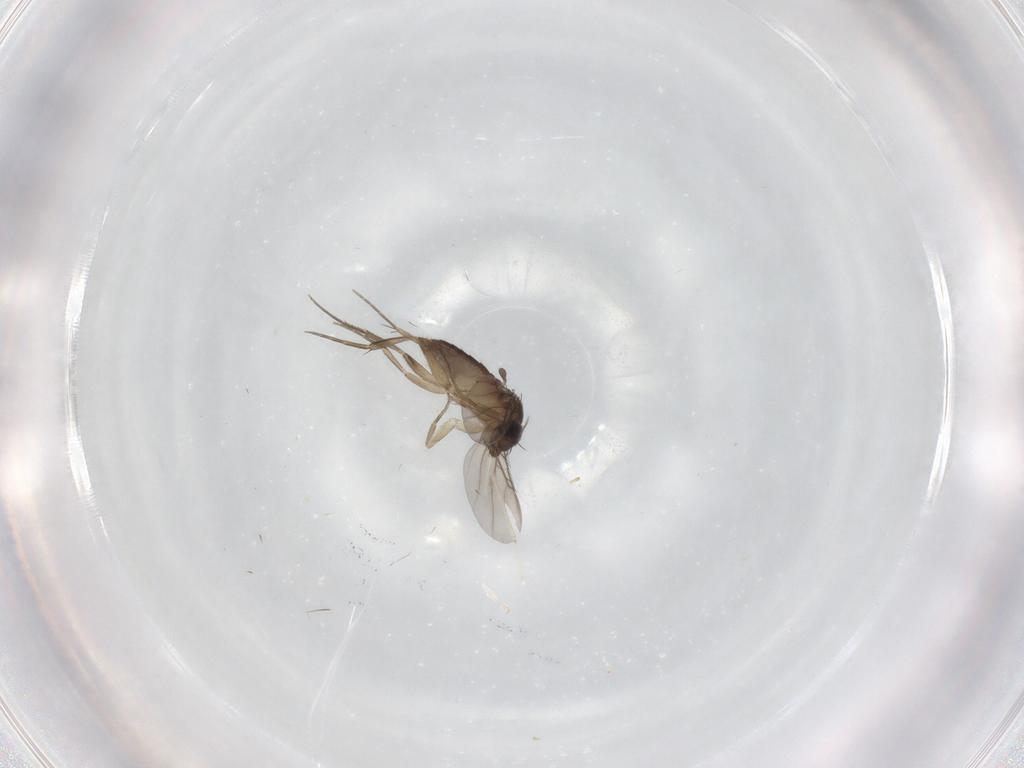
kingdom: Animalia
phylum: Arthropoda
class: Insecta
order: Diptera
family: Phoridae
